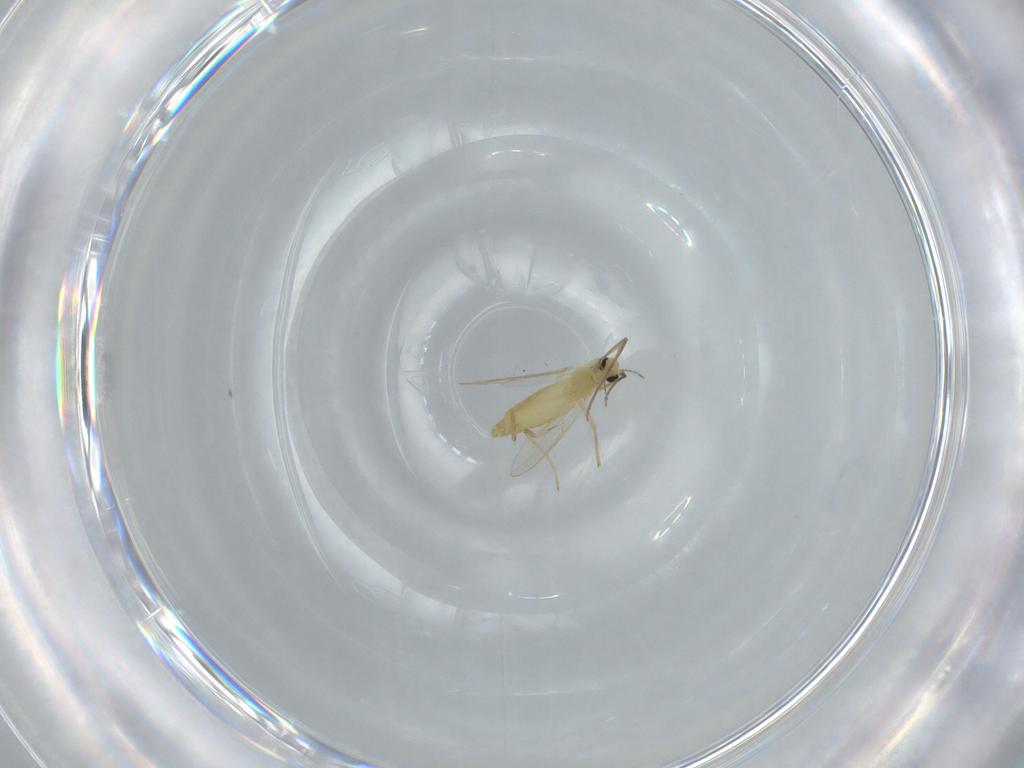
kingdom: Animalia
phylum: Arthropoda
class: Insecta
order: Diptera
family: Chironomidae
